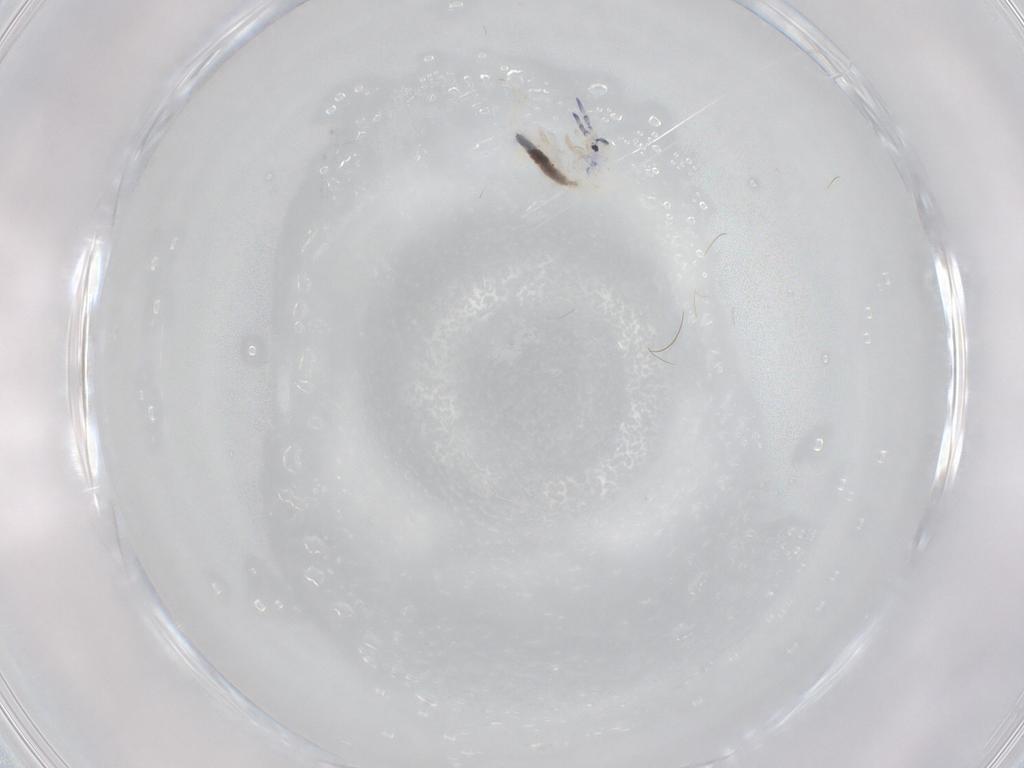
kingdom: Animalia
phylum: Arthropoda
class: Collembola
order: Entomobryomorpha
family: Entomobryidae
